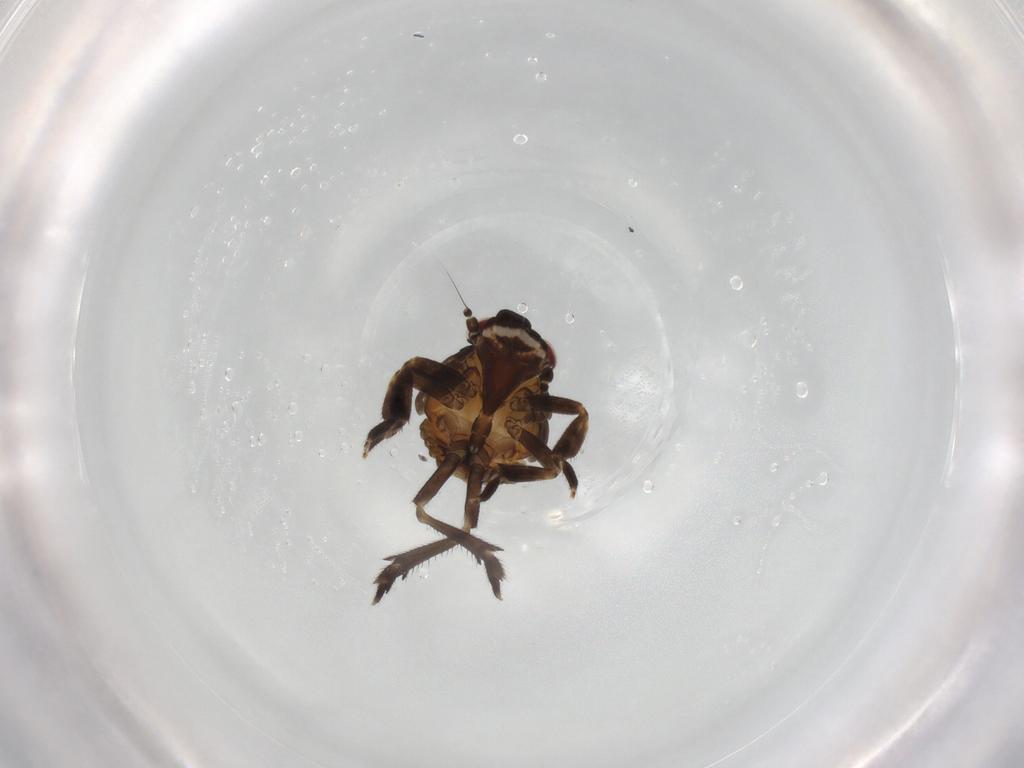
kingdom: Animalia
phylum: Arthropoda
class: Insecta
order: Hemiptera
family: Eurybrachidae
